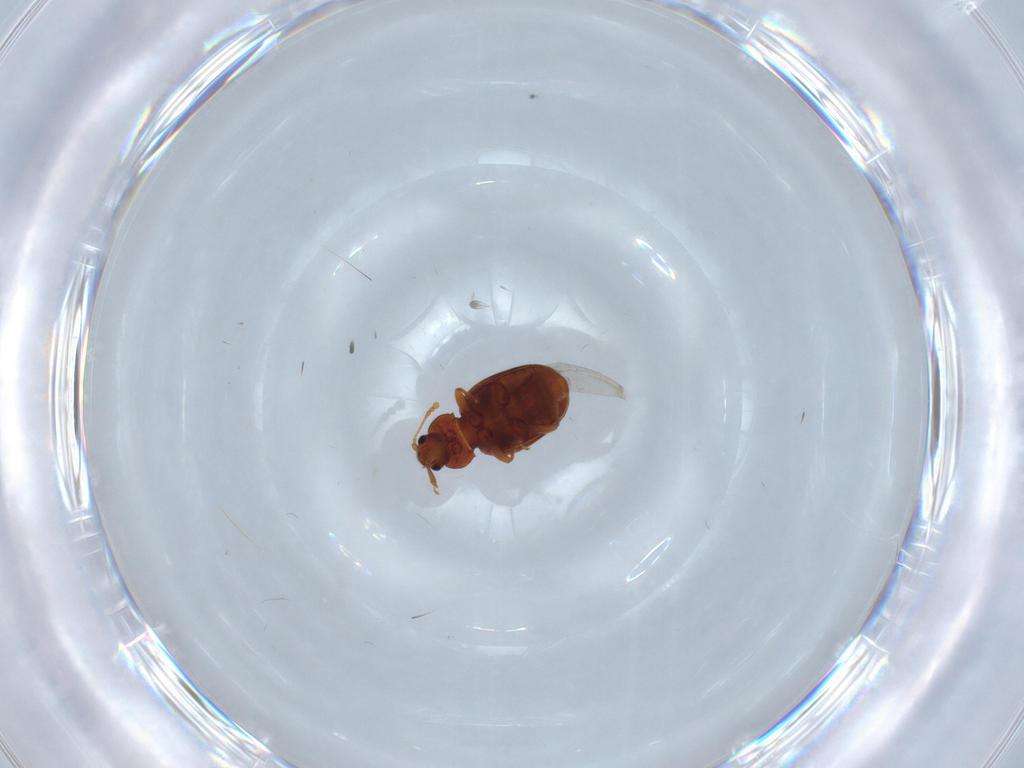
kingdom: Animalia
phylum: Arthropoda
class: Insecta
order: Coleoptera
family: Latridiidae
